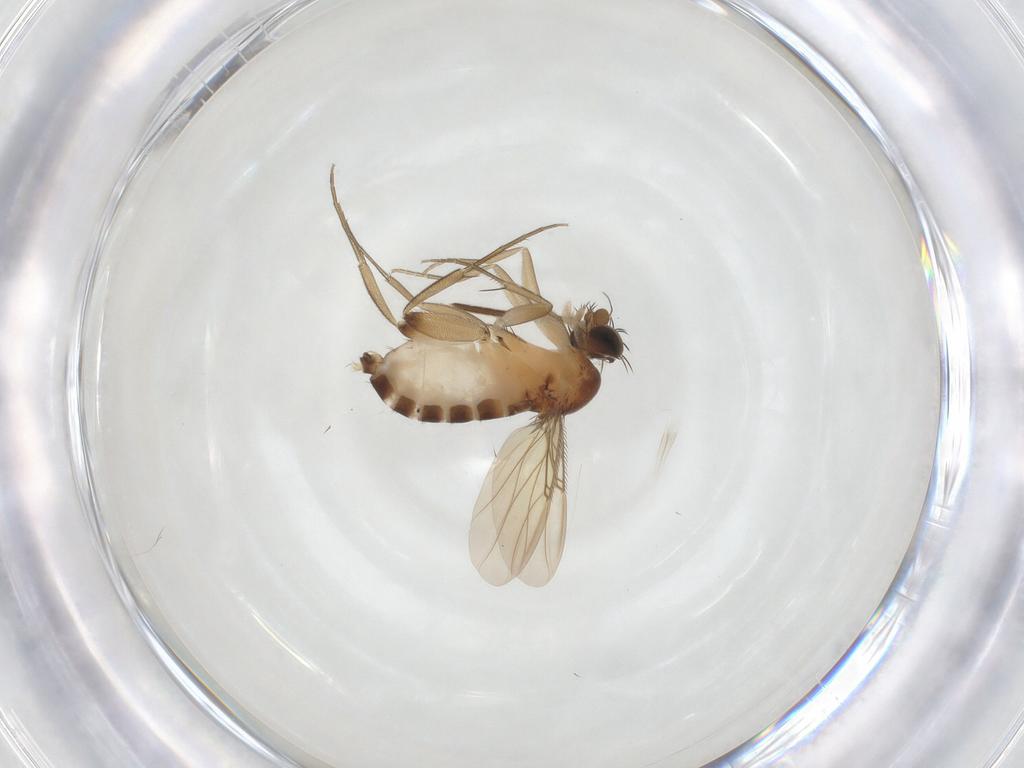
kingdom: Animalia
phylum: Arthropoda
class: Insecta
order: Diptera
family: Phoridae
